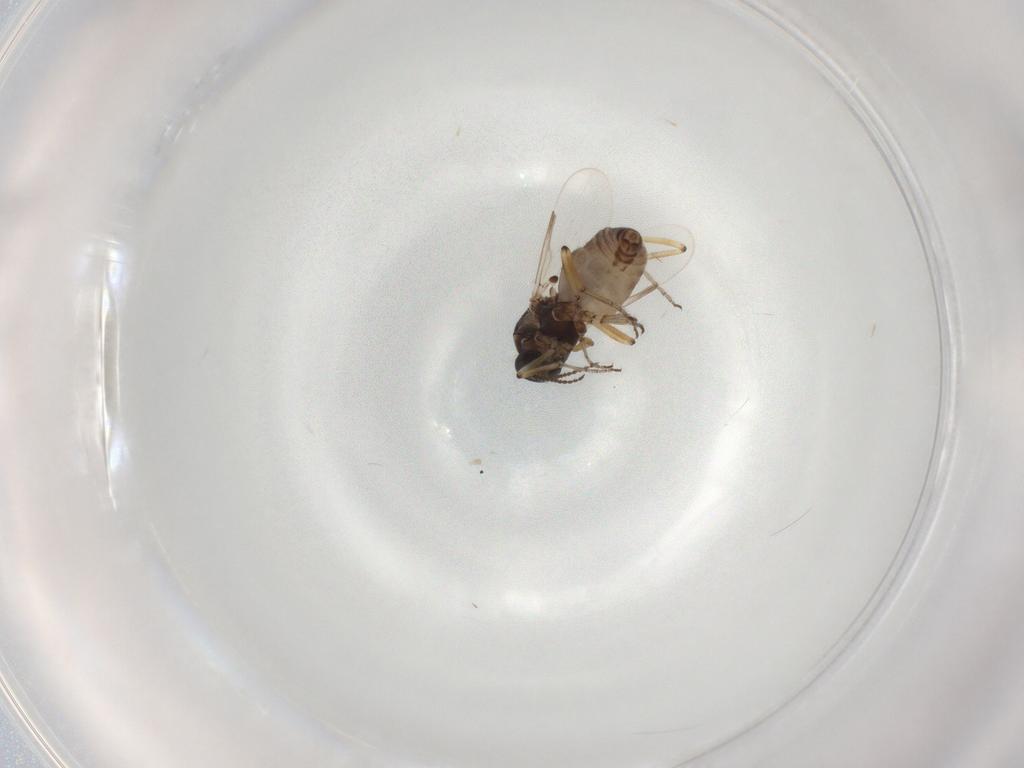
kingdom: Animalia
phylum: Arthropoda
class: Insecta
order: Diptera
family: Ceratopogonidae
